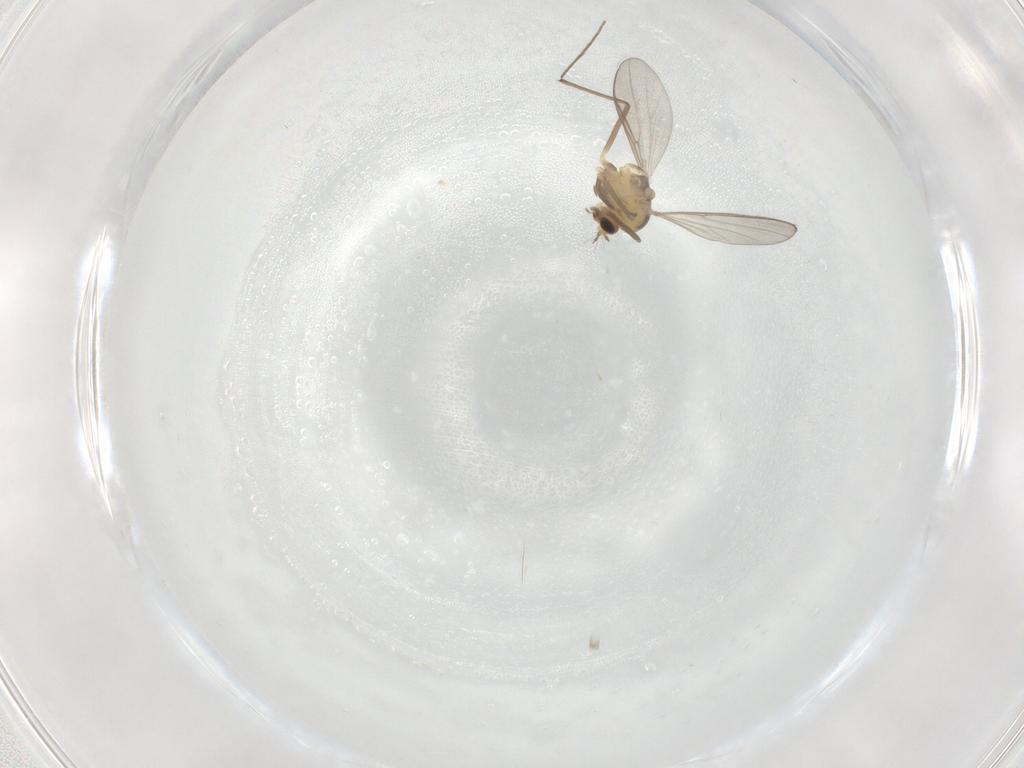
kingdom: Animalia
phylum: Arthropoda
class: Insecta
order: Diptera
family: Chironomidae
